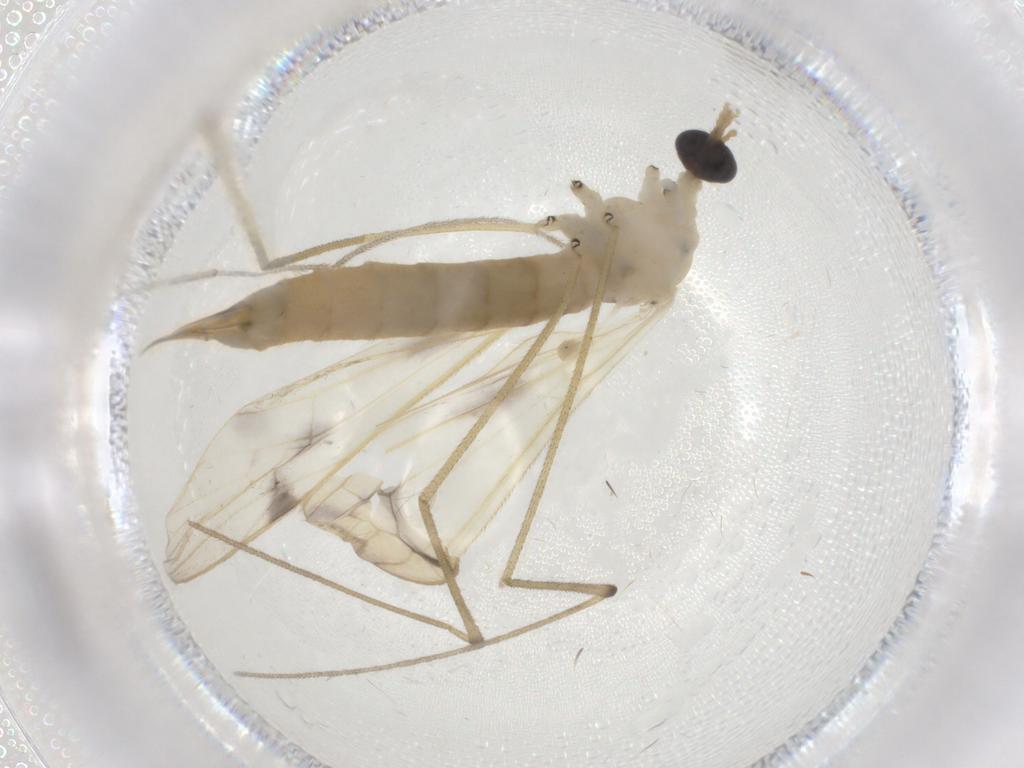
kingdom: Animalia
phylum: Arthropoda
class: Insecta
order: Diptera
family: Limoniidae
